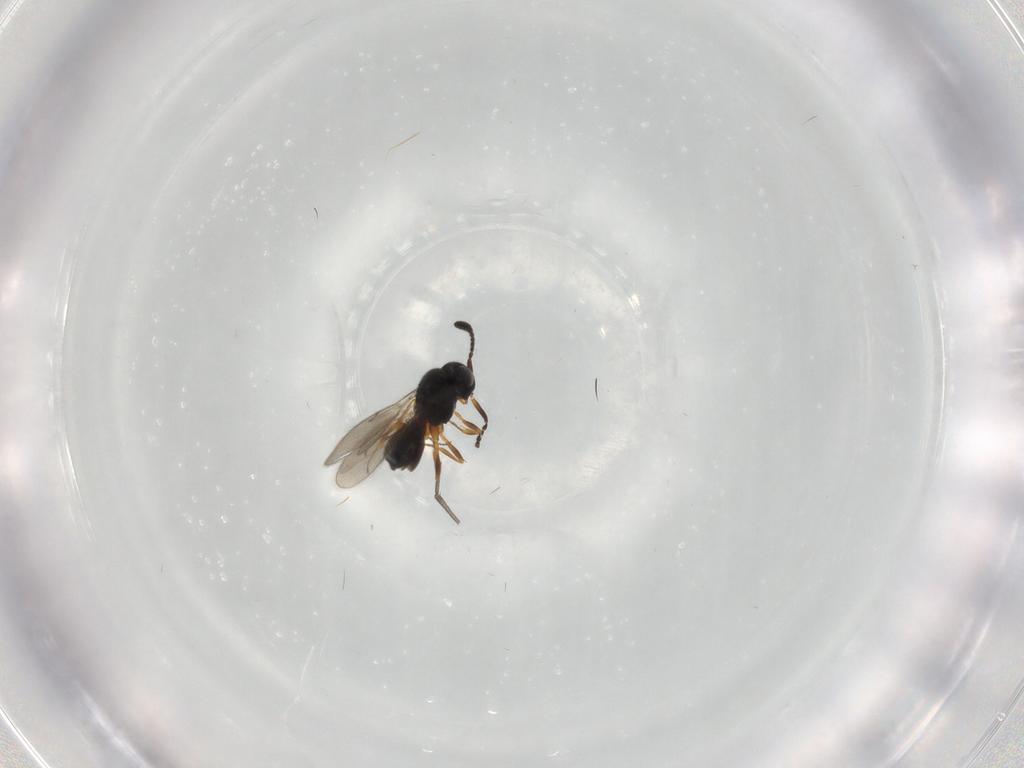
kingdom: Animalia
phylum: Arthropoda
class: Insecta
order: Hymenoptera
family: Scelionidae
